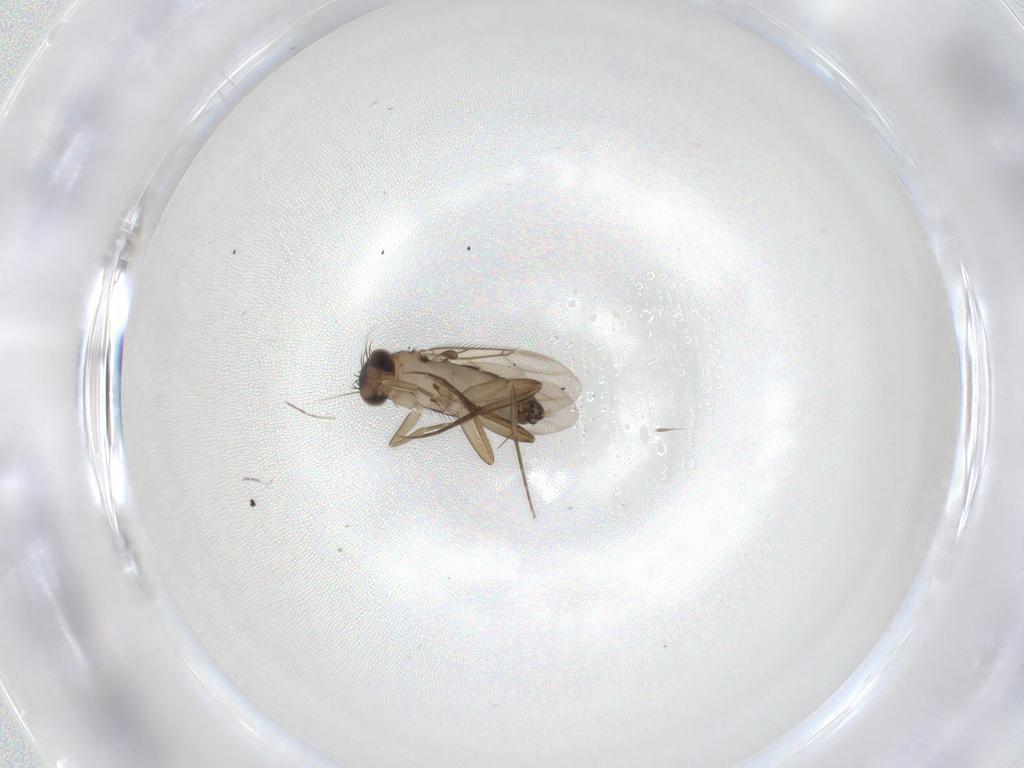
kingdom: Animalia
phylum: Arthropoda
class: Insecta
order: Diptera
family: Phoridae
